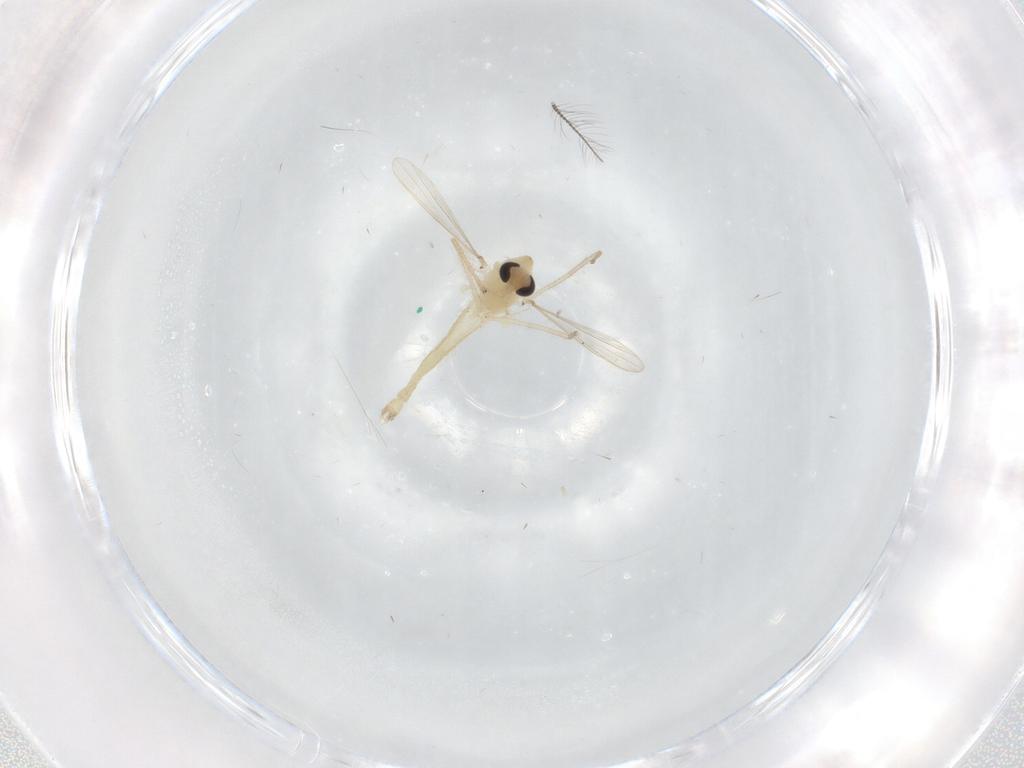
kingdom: Animalia
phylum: Arthropoda
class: Insecta
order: Diptera
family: Chironomidae
